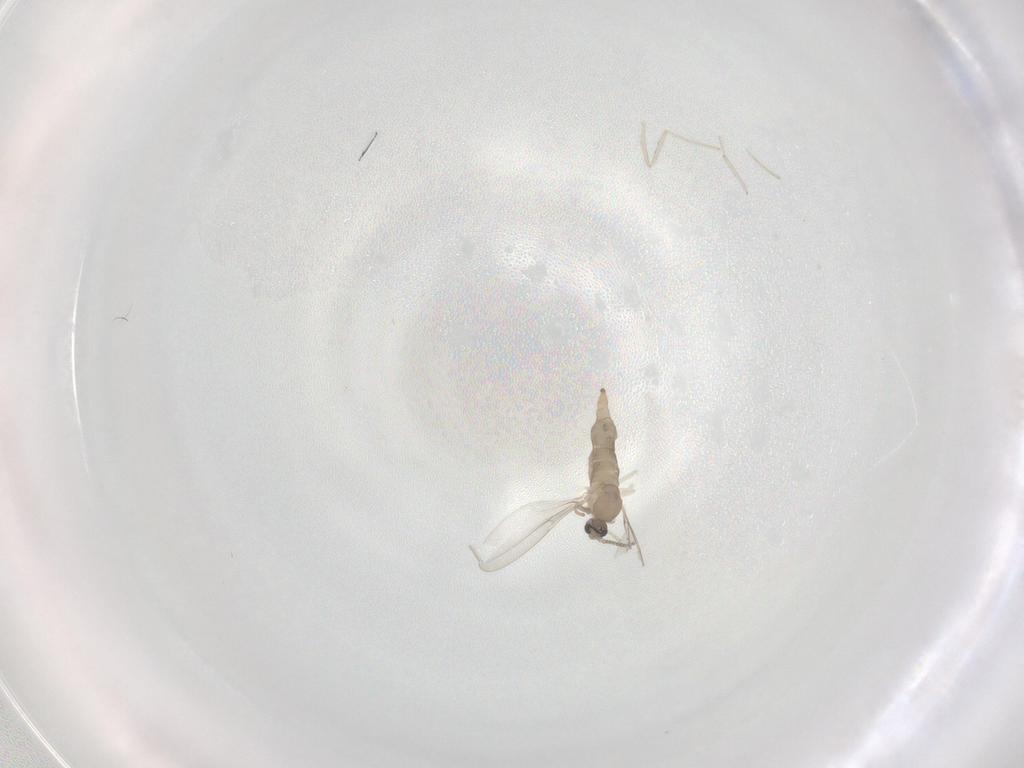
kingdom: Animalia
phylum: Arthropoda
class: Insecta
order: Diptera
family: Cecidomyiidae
